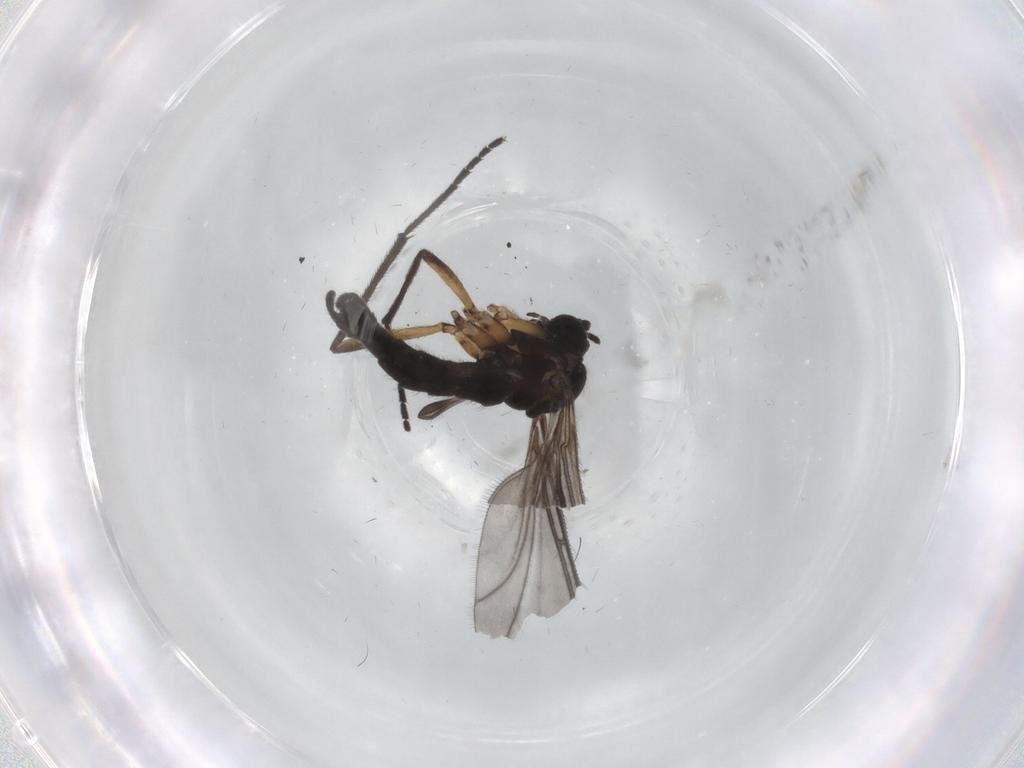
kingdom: Animalia
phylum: Arthropoda
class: Insecta
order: Diptera
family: Sciaridae
